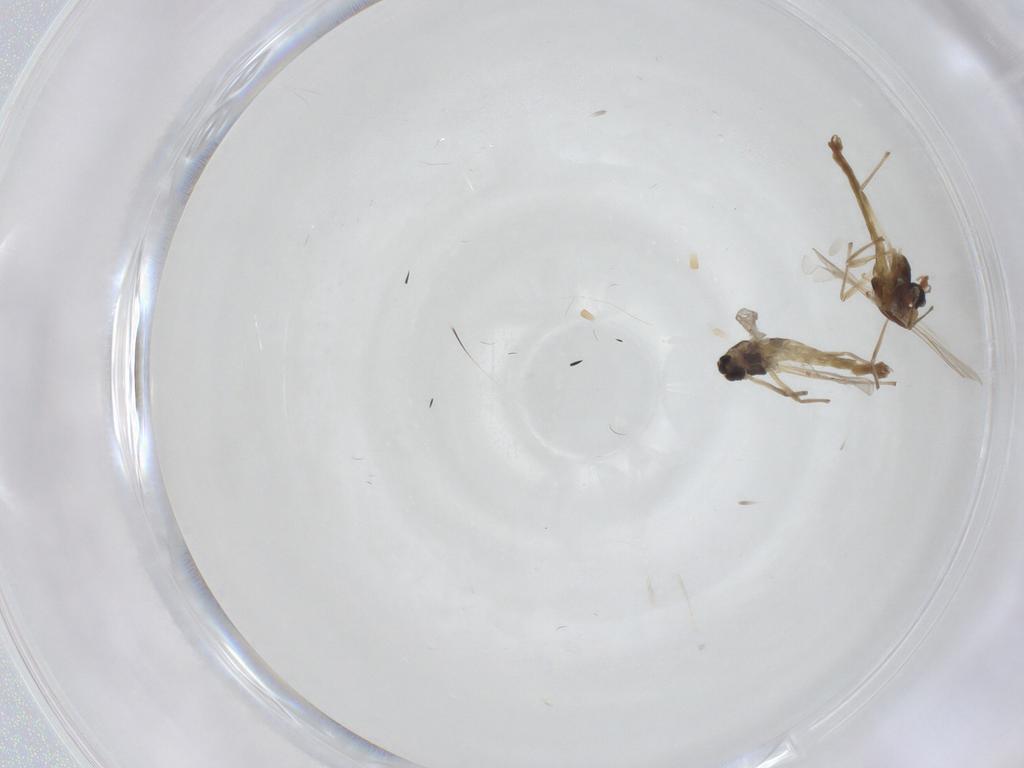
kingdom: Animalia
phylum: Arthropoda
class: Insecta
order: Diptera
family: Chironomidae
